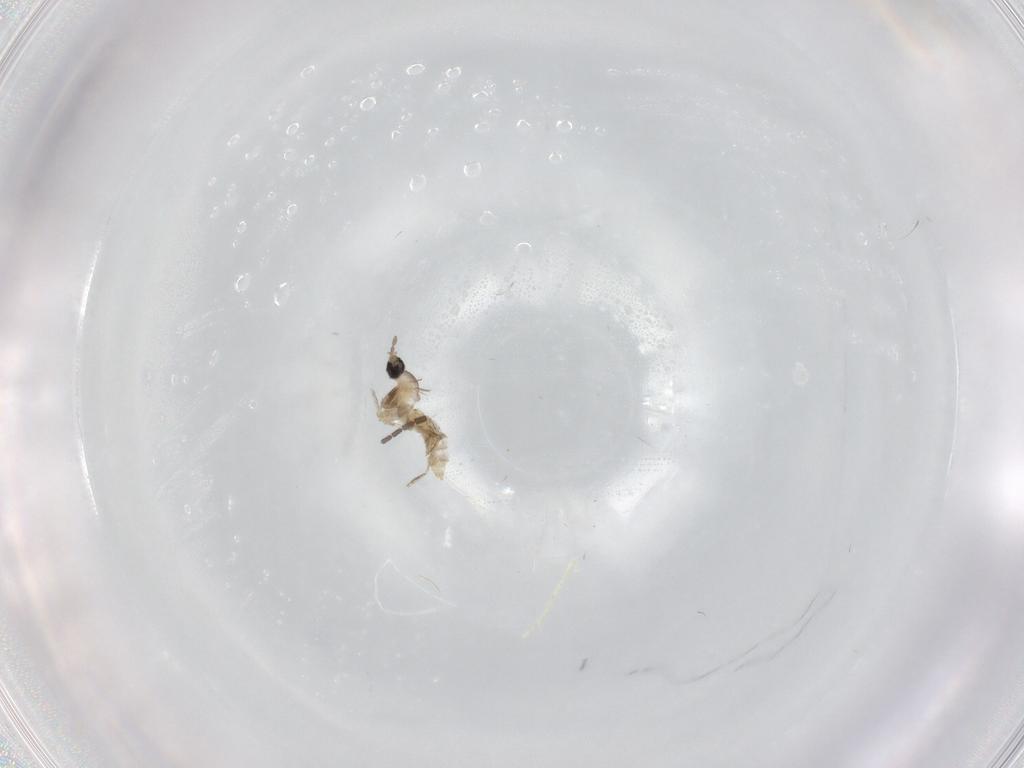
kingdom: Animalia
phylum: Arthropoda
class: Insecta
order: Diptera
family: Cecidomyiidae
